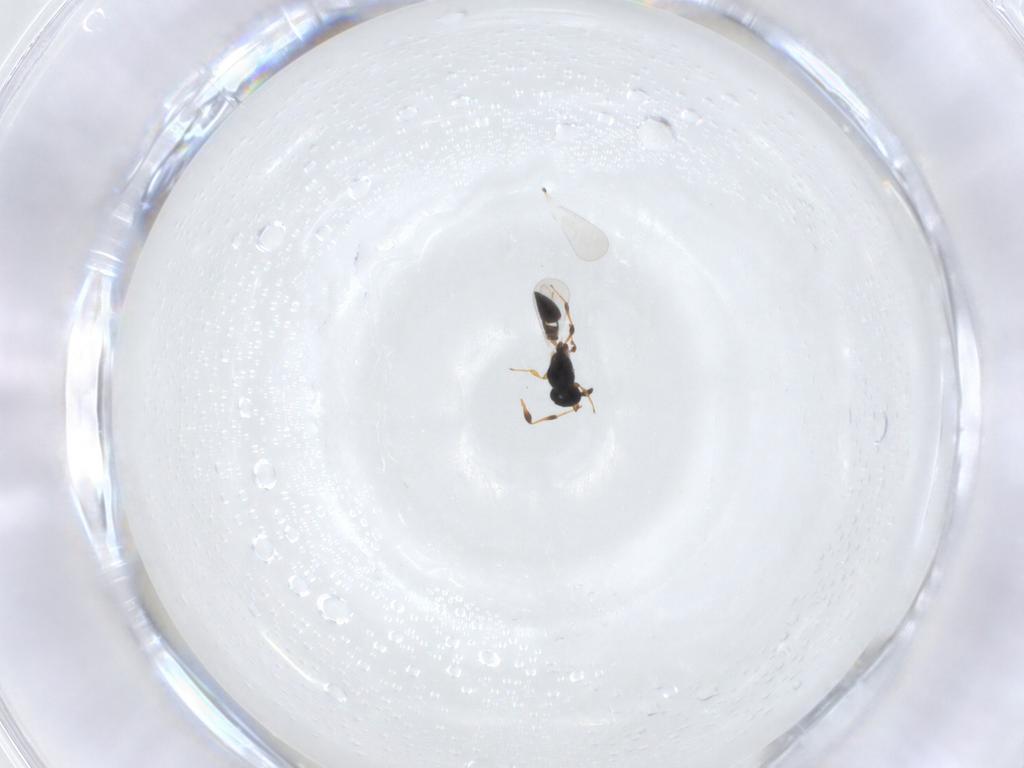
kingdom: Animalia
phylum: Arthropoda
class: Insecta
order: Hymenoptera
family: Platygastridae
